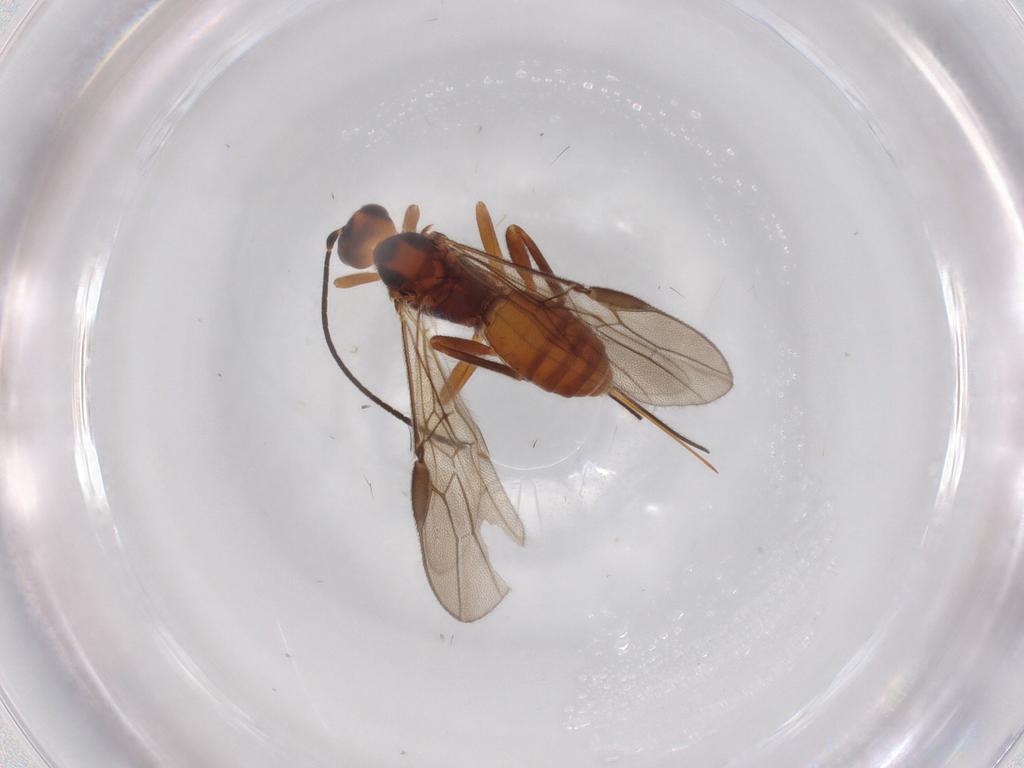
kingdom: Animalia
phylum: Arthropoda
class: Insecta
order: Hymenoptera
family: Braconidae
